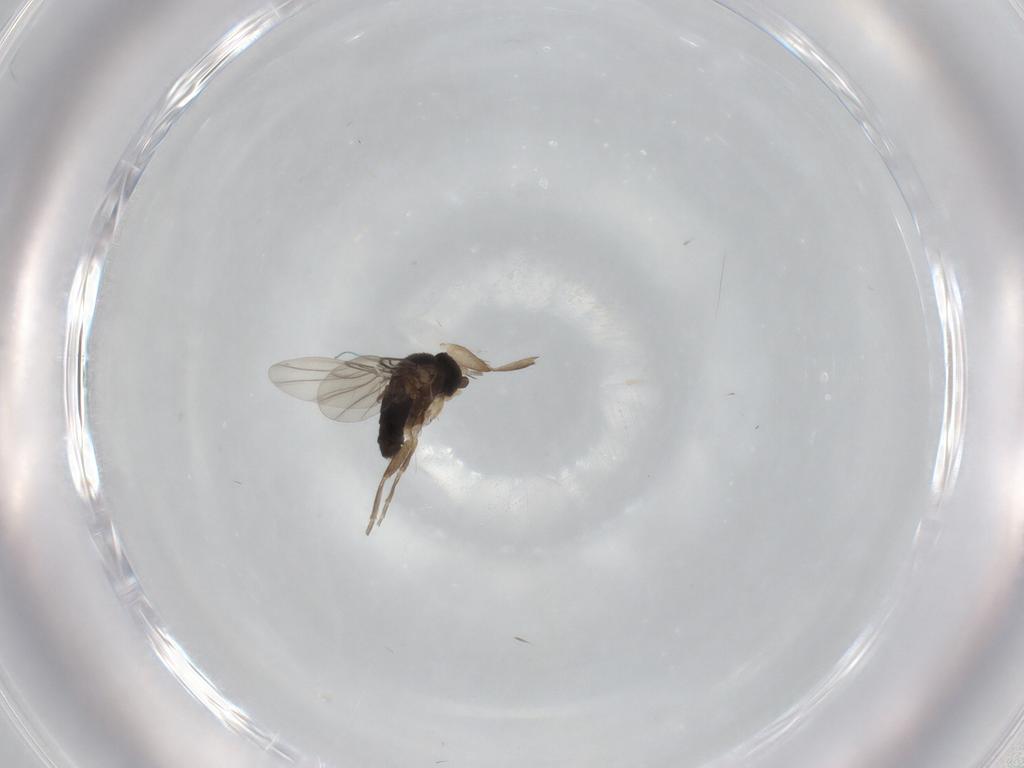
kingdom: Animalia
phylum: Arthropoda
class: Insecta
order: Diptera
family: Phoridae
